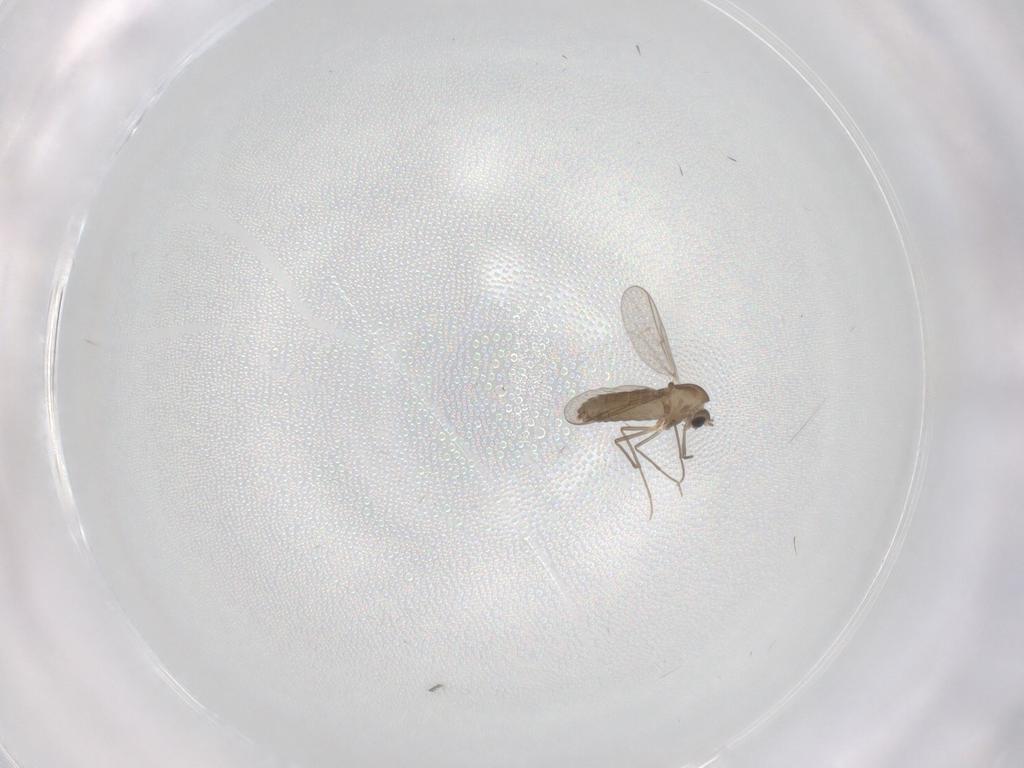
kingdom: Animalia
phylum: Arthropoda
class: Insecta
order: Diptera
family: Chironomidae
